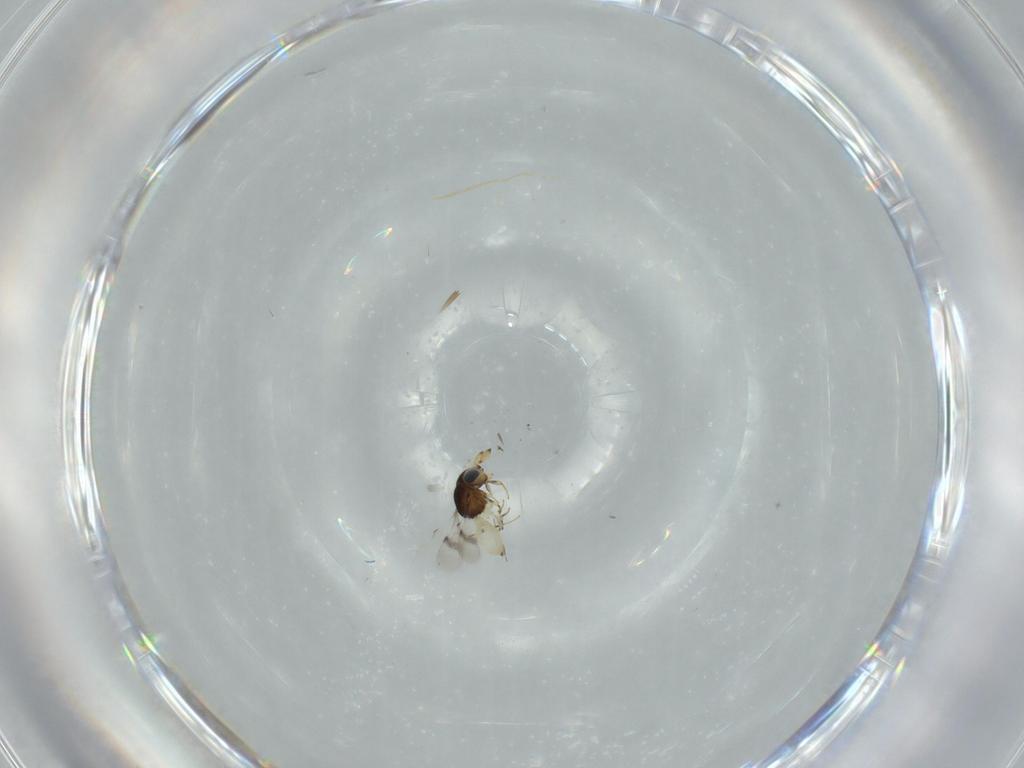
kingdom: Animalia
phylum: Arthropoda
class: Insecta
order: Hymenoptera
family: Scelionidae
